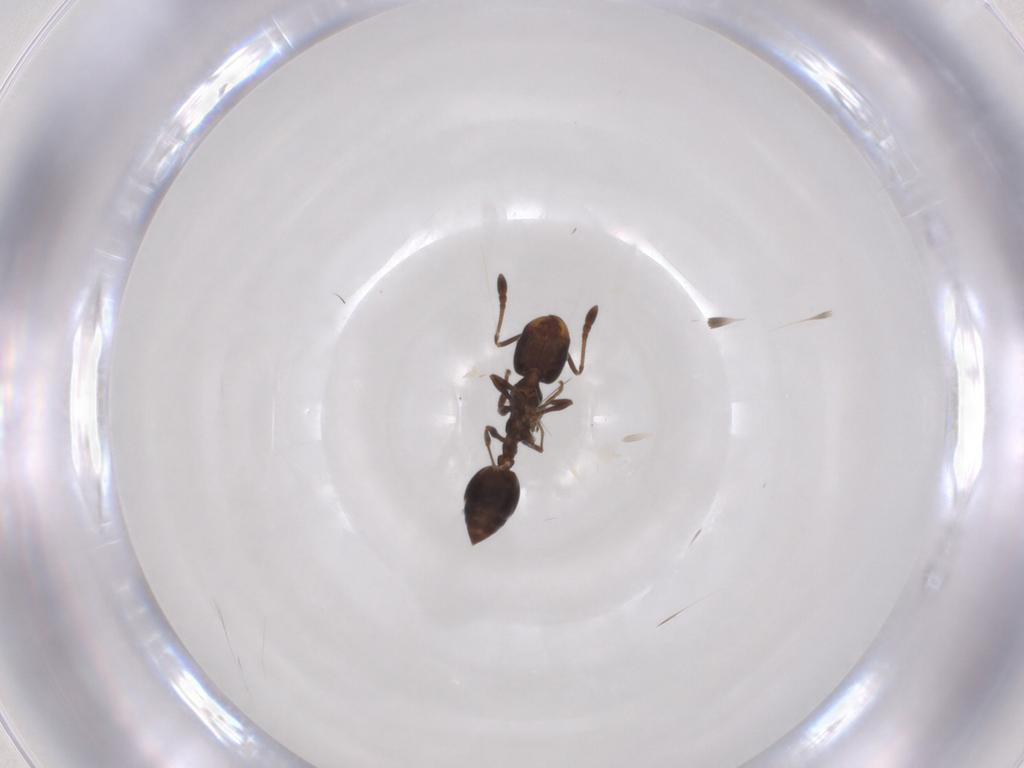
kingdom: Animalia
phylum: Arthropoda
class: Insecta
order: Hymenoptera
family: Formicidae
